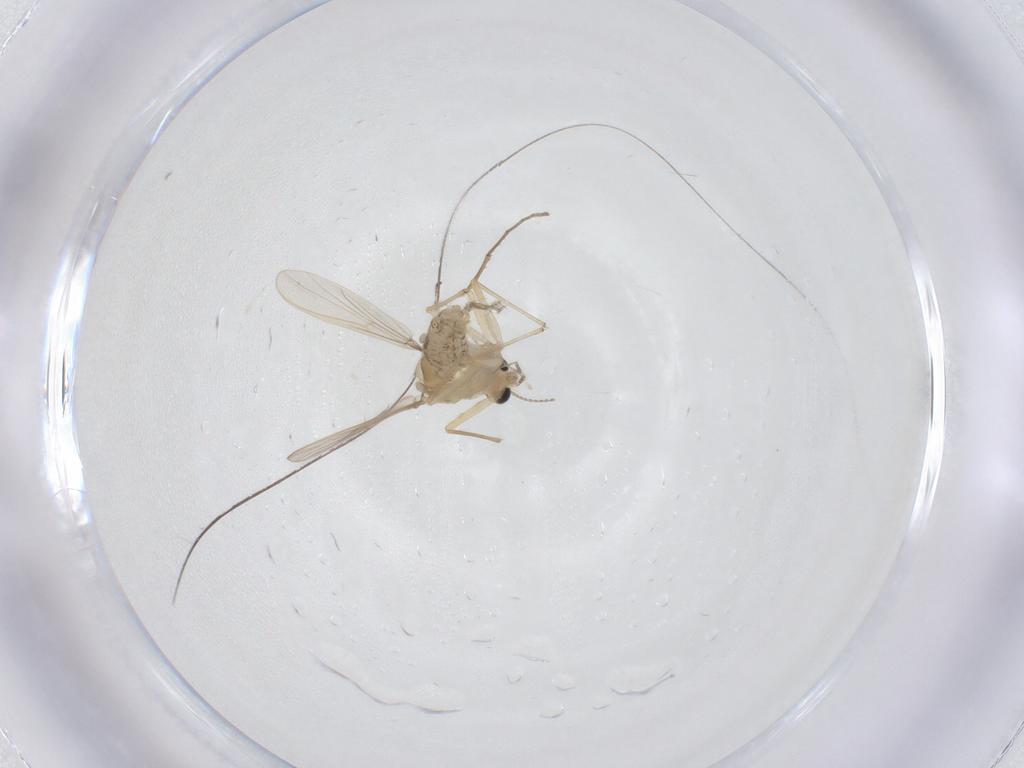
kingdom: Animalia
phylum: Arthropoda
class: Insecta
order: Diptera
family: Chironomidae
